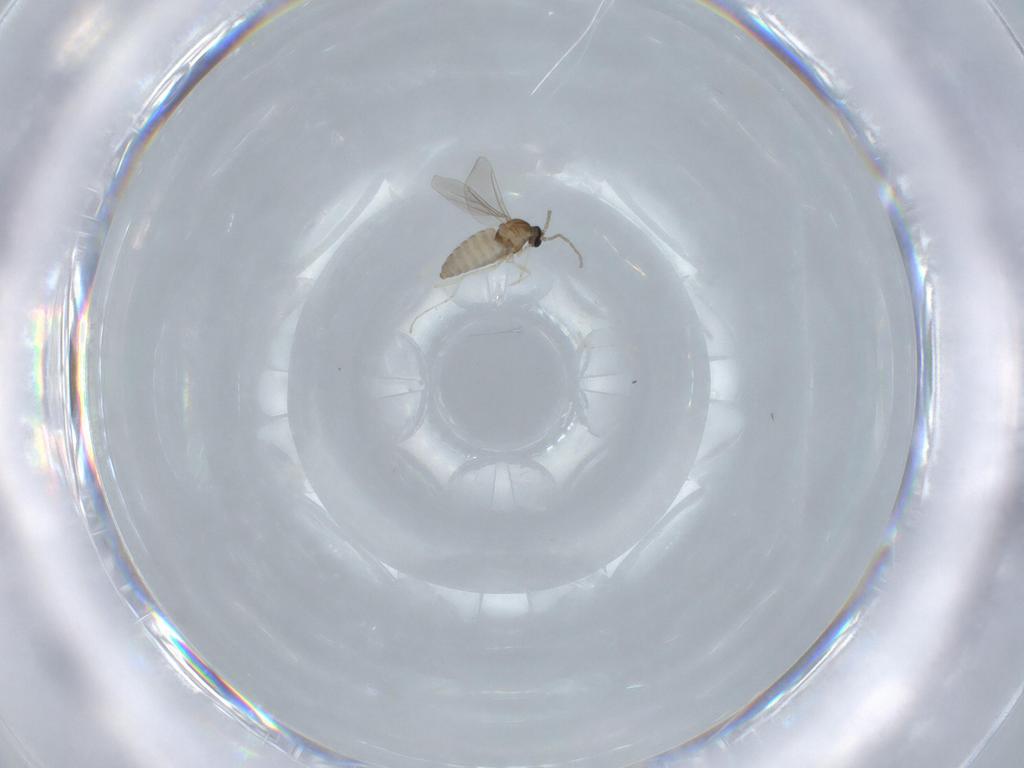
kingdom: Animalia
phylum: Arthropoda
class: Insecta
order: Diptera
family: Cecidomyiidae
